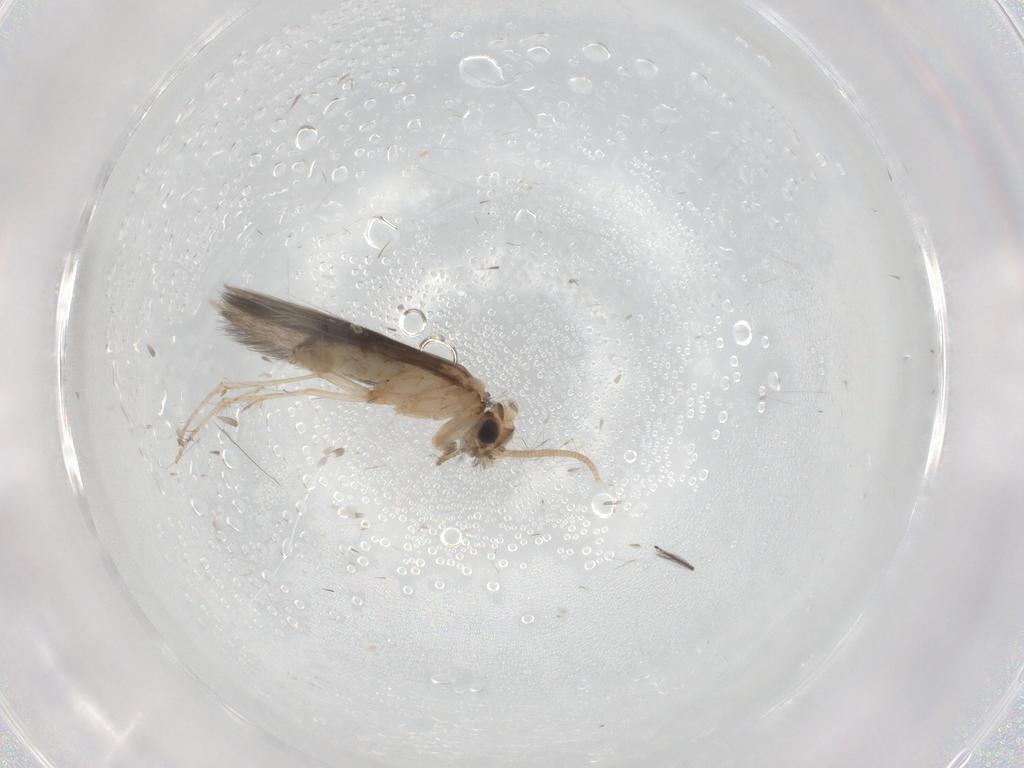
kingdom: Animalia
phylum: Arthropoda
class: Insecta
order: Trichoptera
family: Hydroptilidae
